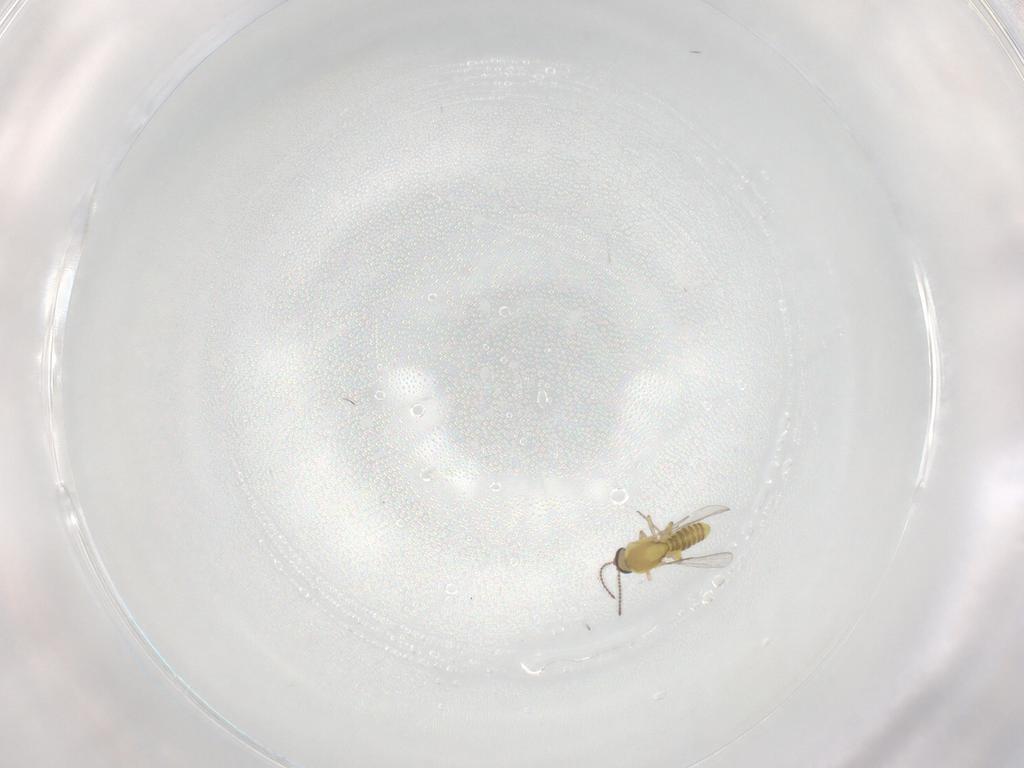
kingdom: Animalia
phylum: Arthropoda
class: Insecta
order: Diptera
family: Ceratopogonidae
